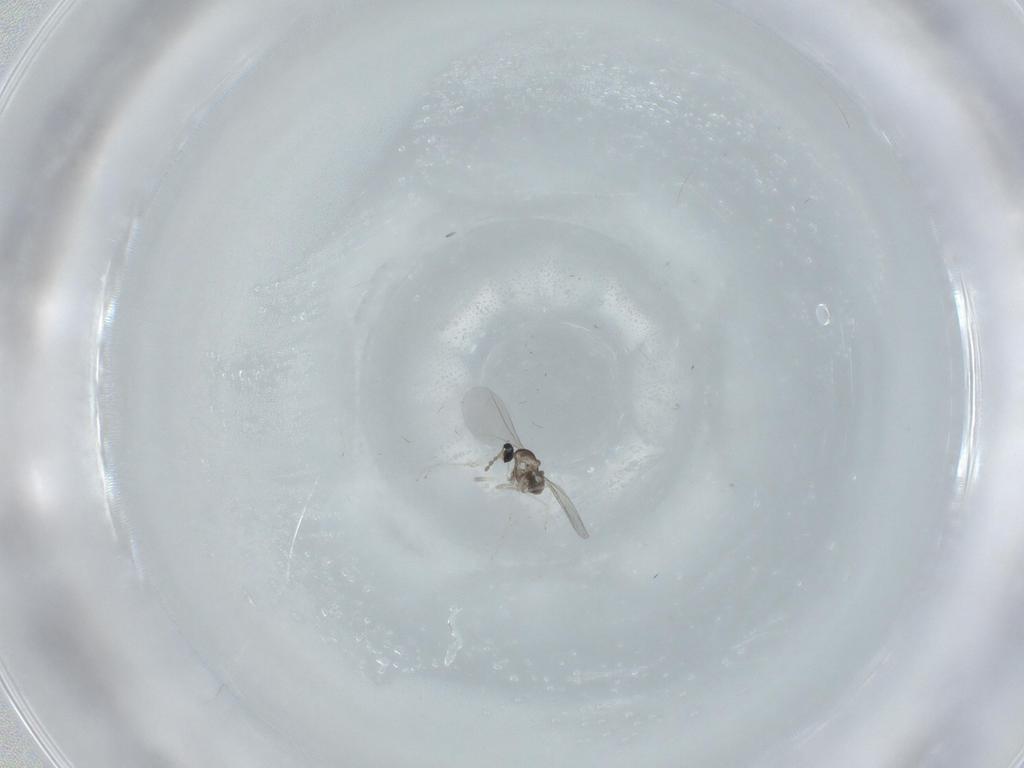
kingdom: Animalia
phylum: Arthropoda
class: Insecta
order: Diptera
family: Cecidomyiidae
